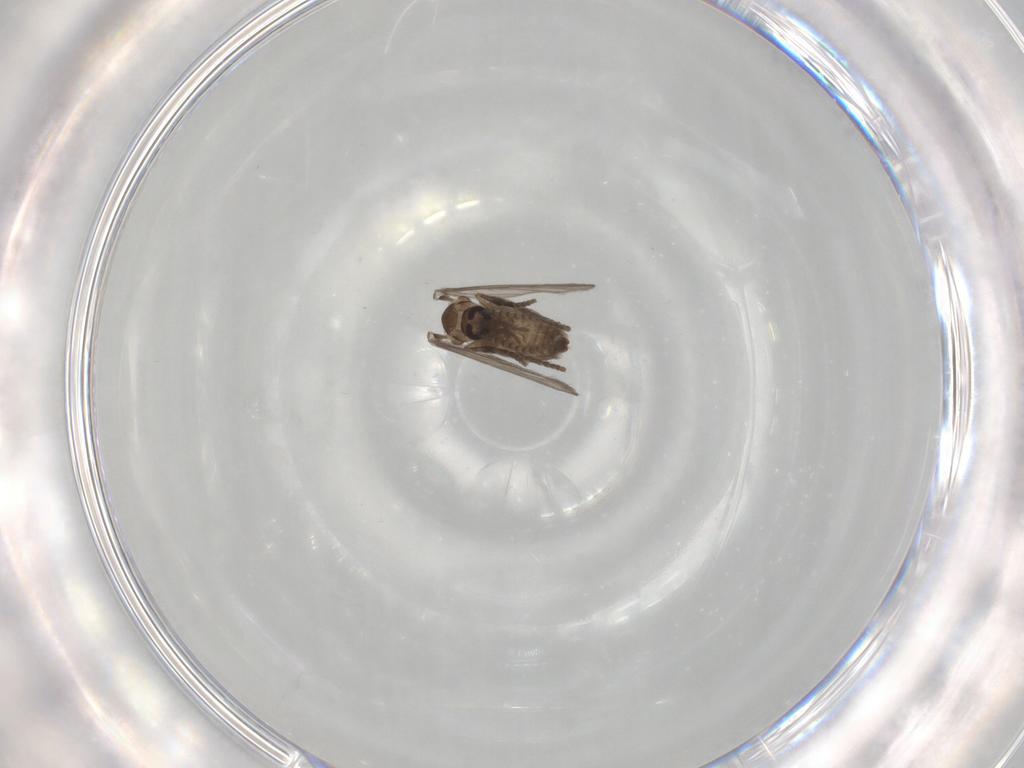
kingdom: Animalia
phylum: Arthropoda
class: Insecta
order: Diptera
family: Psychodidae
